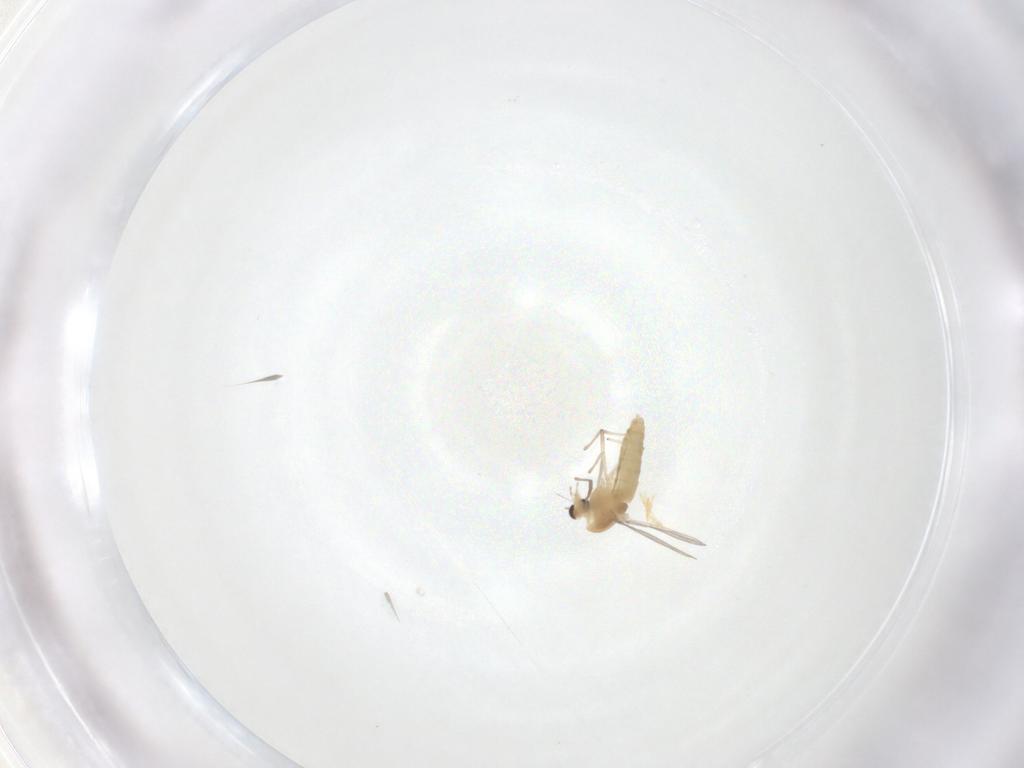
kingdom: Animalia
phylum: Arthropoda
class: Insecta
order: Diptera
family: Chironomidae
